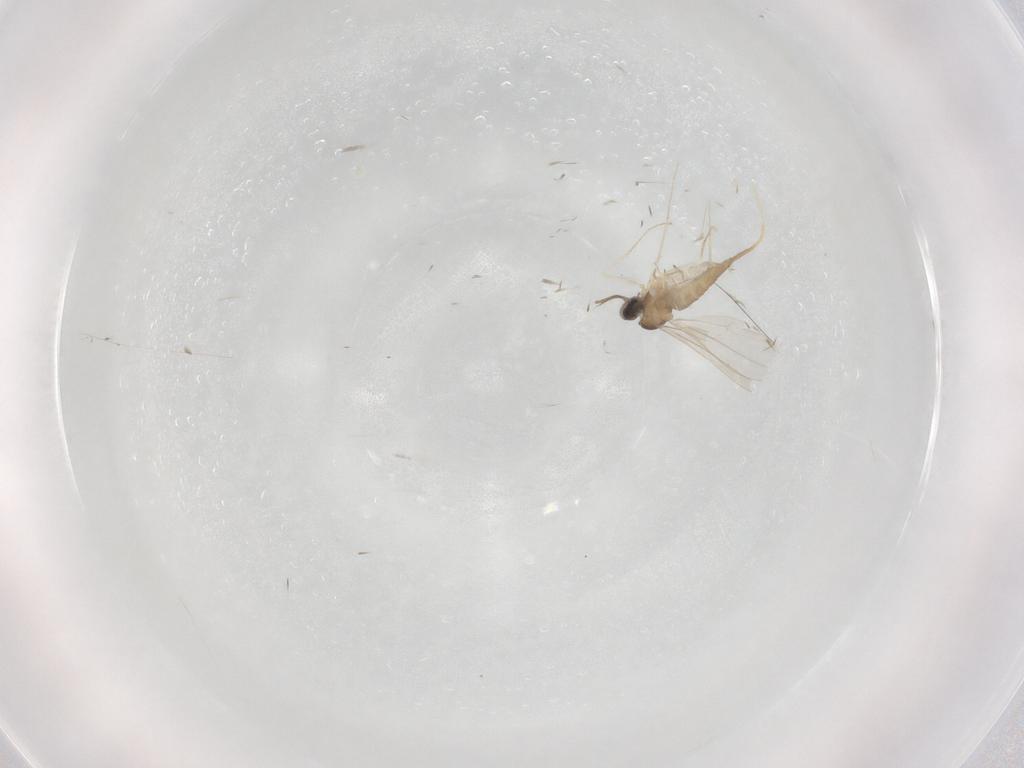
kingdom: Animalia
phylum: Arthropoda
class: Insecta
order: Diptera
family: Cecidomyiidae
